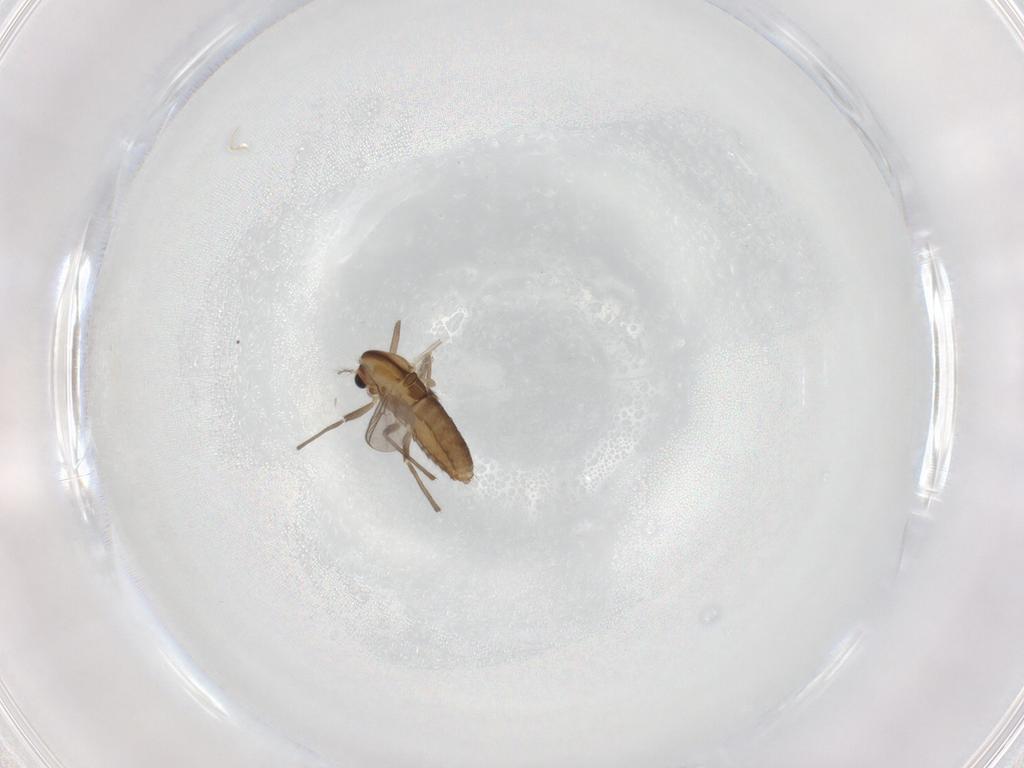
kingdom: Animalia
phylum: Arthropoda
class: Insecta
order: Diptera
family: Chironomidae
